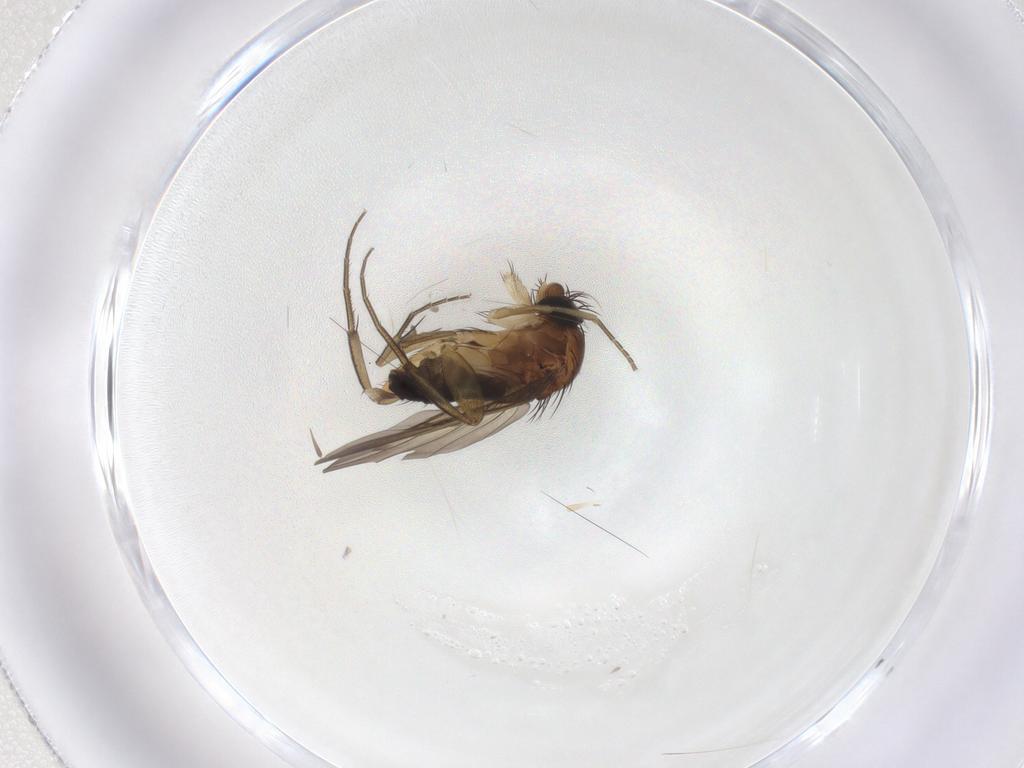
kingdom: Animalia
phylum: Arthropoda
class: Insecta
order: Diptera
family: Phoridae
